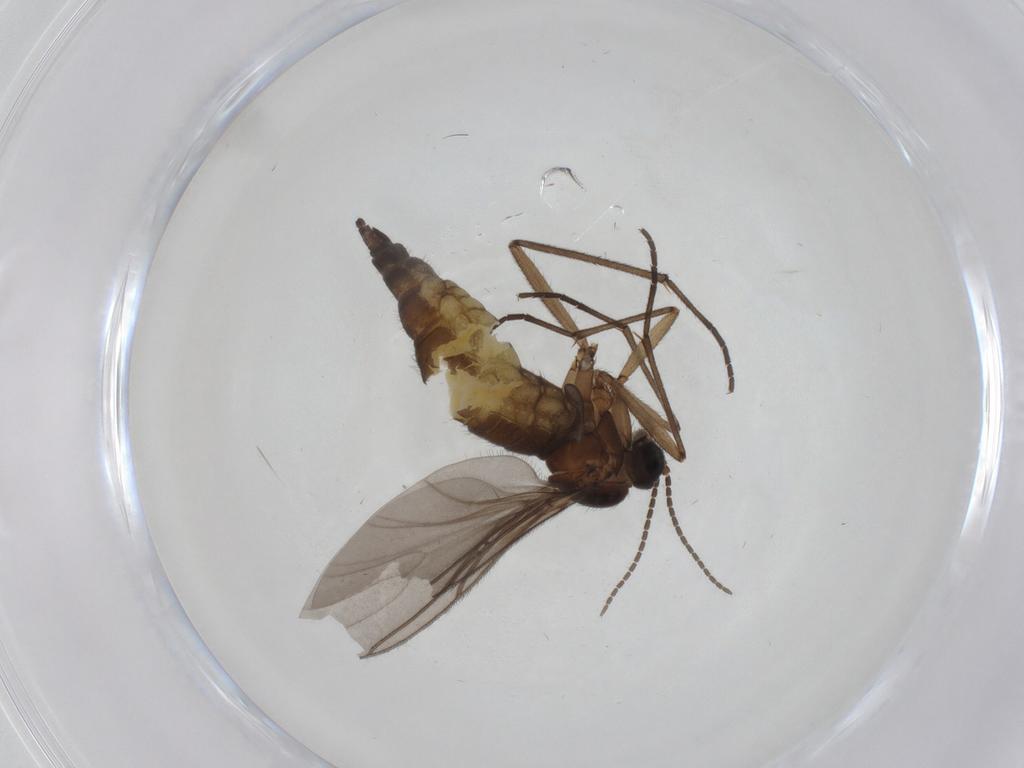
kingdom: Animalia
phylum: Arthropoda
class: Insecta
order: Diptera
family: Sciaridae
